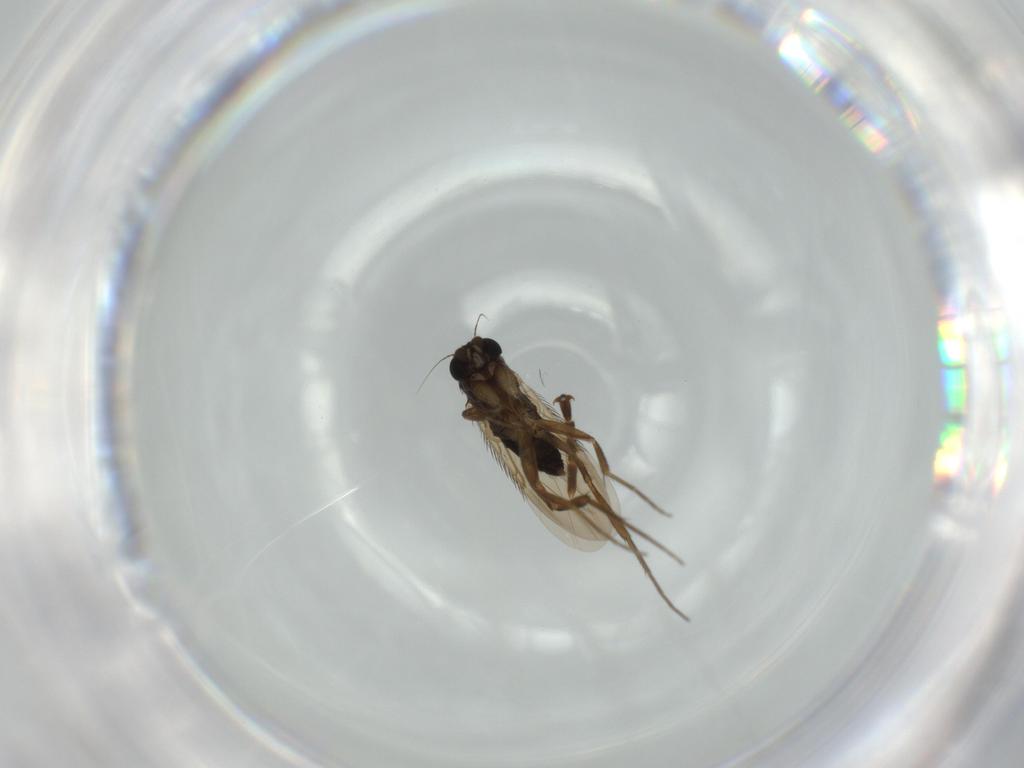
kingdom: Animalia
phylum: Arthropoda
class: Insecta
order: Diptera
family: Phoridae
